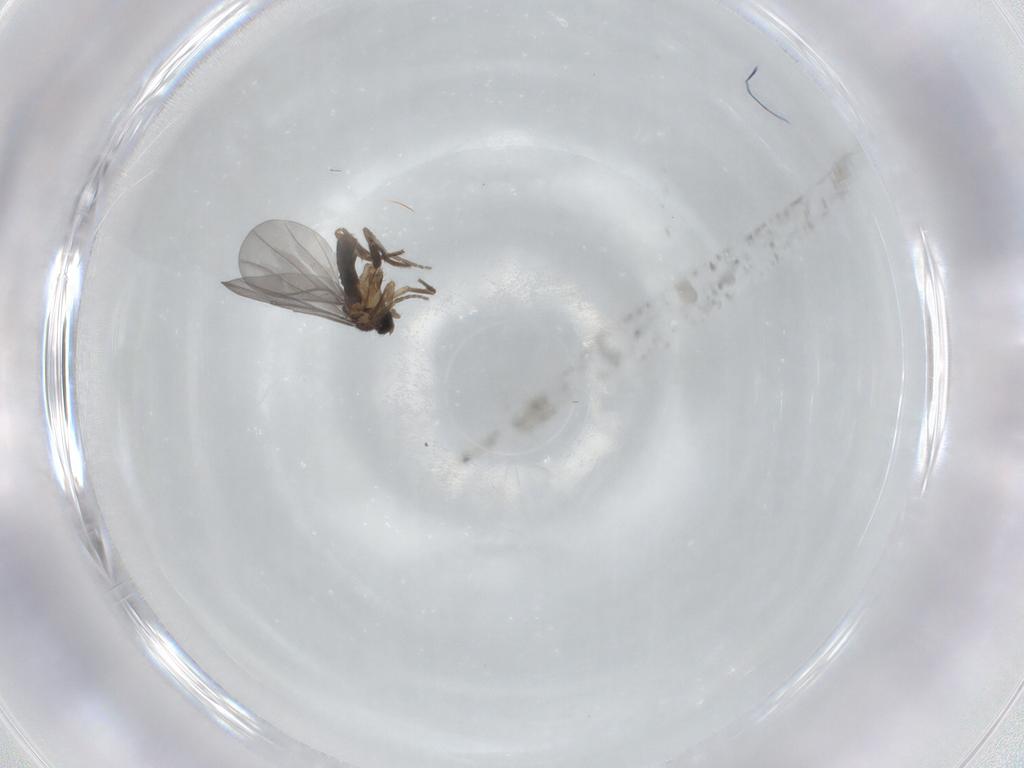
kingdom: Animalia
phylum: Arthropoda
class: Insecta
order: Diptera
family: Phoridae
